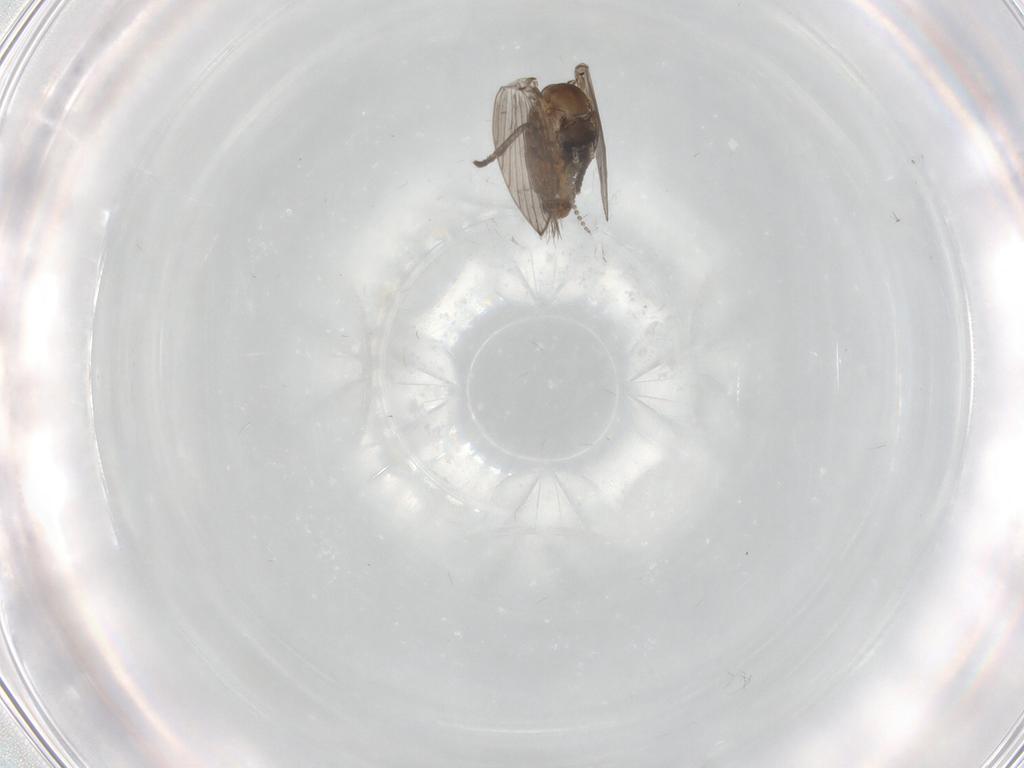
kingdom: Animalia
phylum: Arthropoda
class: Insecta
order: Diptera
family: Psychodidae
